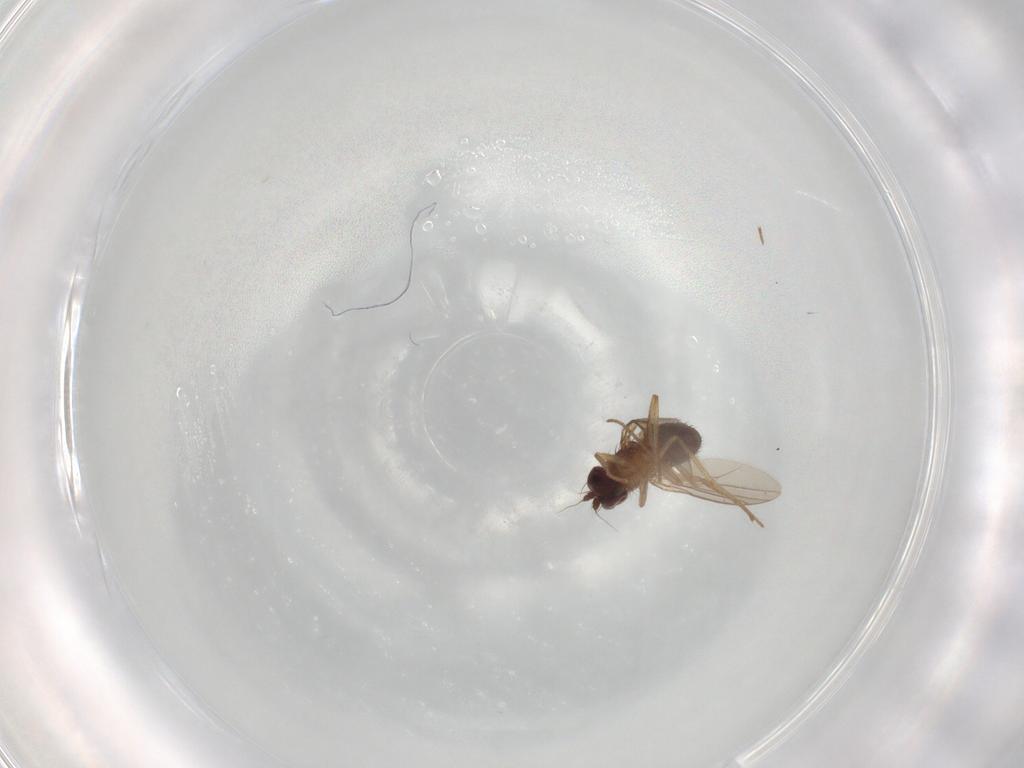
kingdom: Animalia
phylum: Arthropoda
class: Insecta
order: Diptera
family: Dolichopodidae
